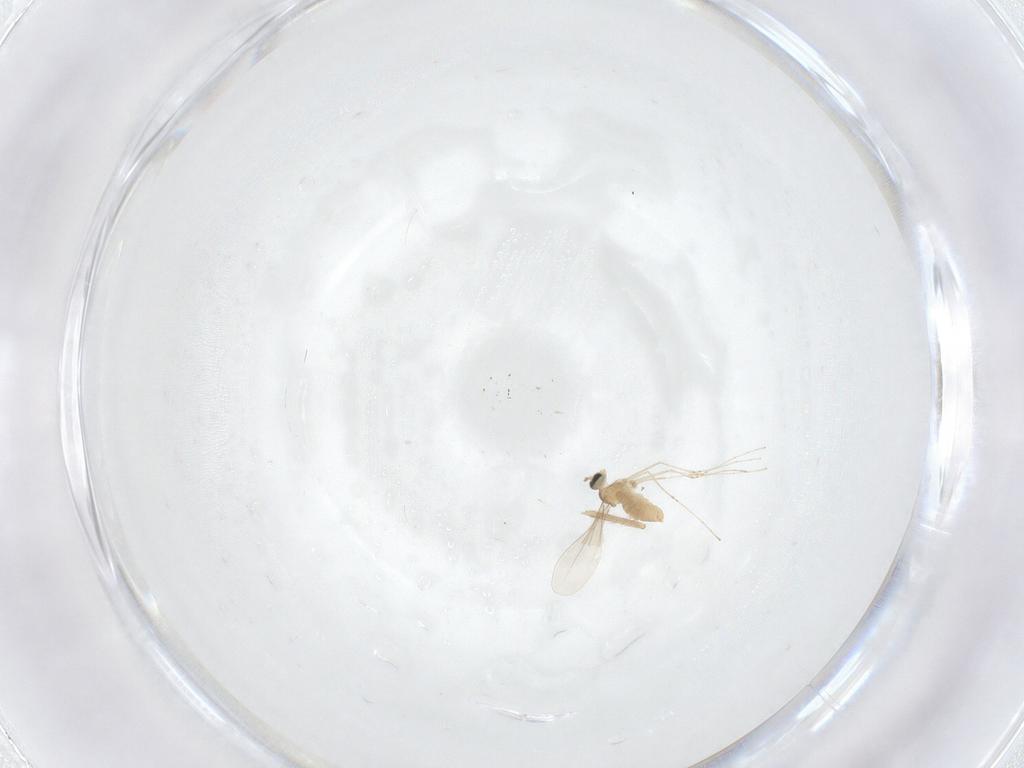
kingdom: Animalia
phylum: Arthropoda
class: Insecta
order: Diptera
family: Chironomidae
